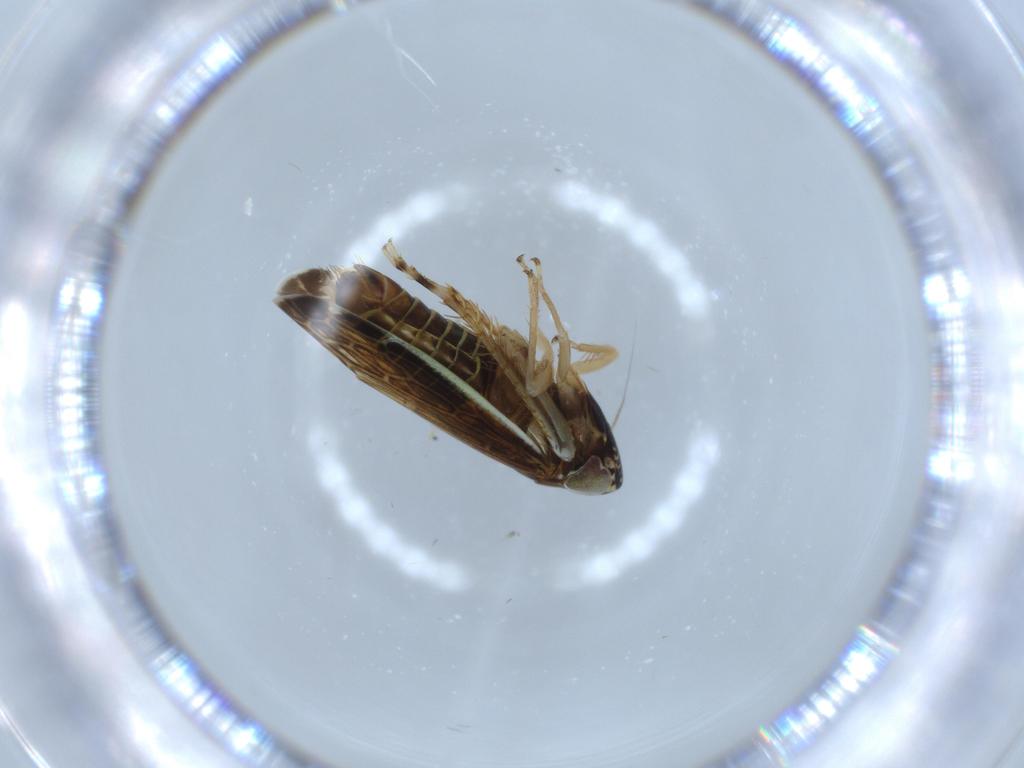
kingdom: Animalia
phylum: Arthropoda
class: Insecta
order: Hemiptera
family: Cicadellidae
